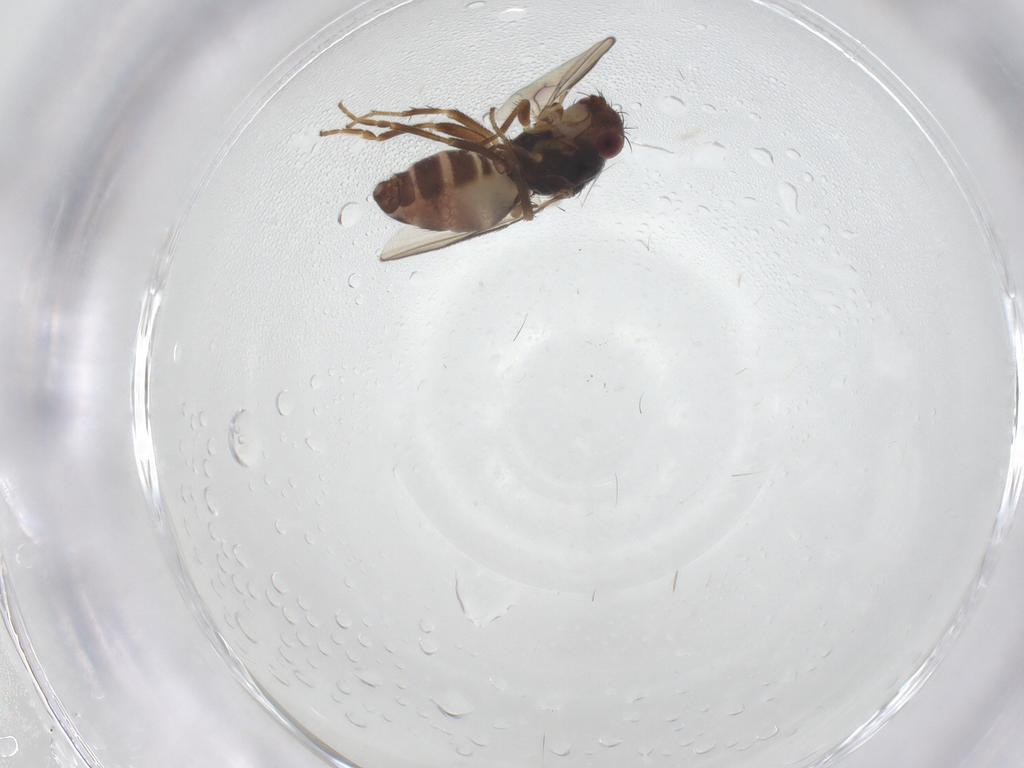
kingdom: Animalia
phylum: Arthropoda
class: Insecta
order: Diptera
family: Sphaeroceridae
